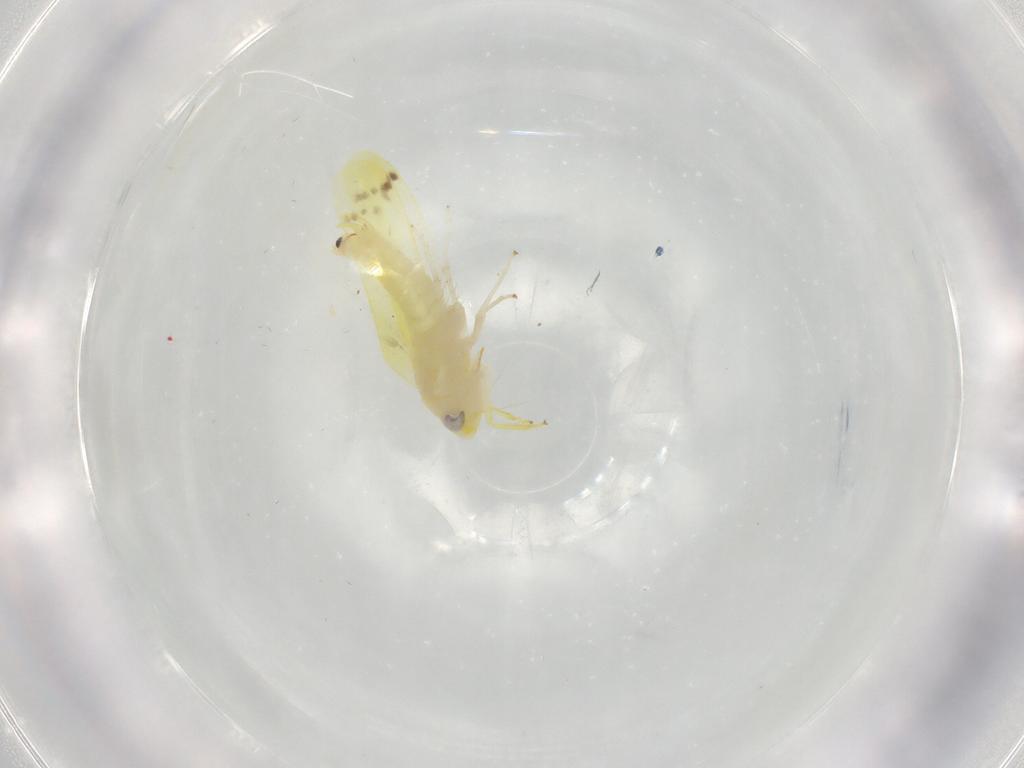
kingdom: Animalia
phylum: Arthropoda
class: Insecta
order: Hemiptera
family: Cicadellidae
